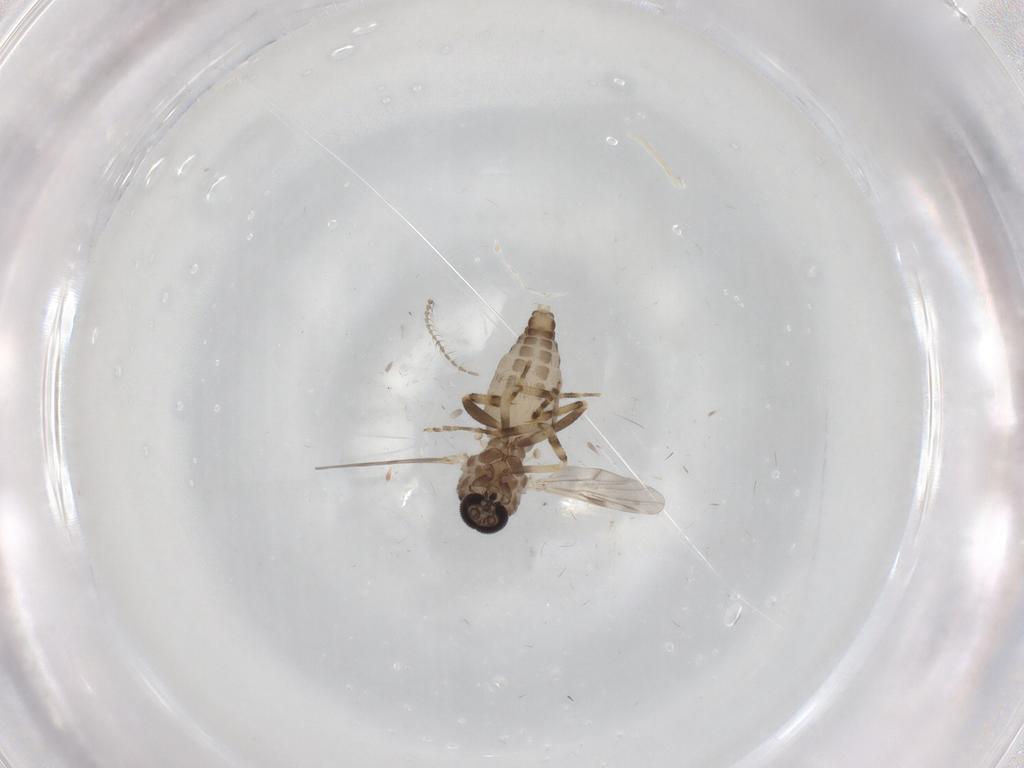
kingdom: Animalia
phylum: Arthropoda
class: Insecta
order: Diptera
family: Ceratopogonidae
